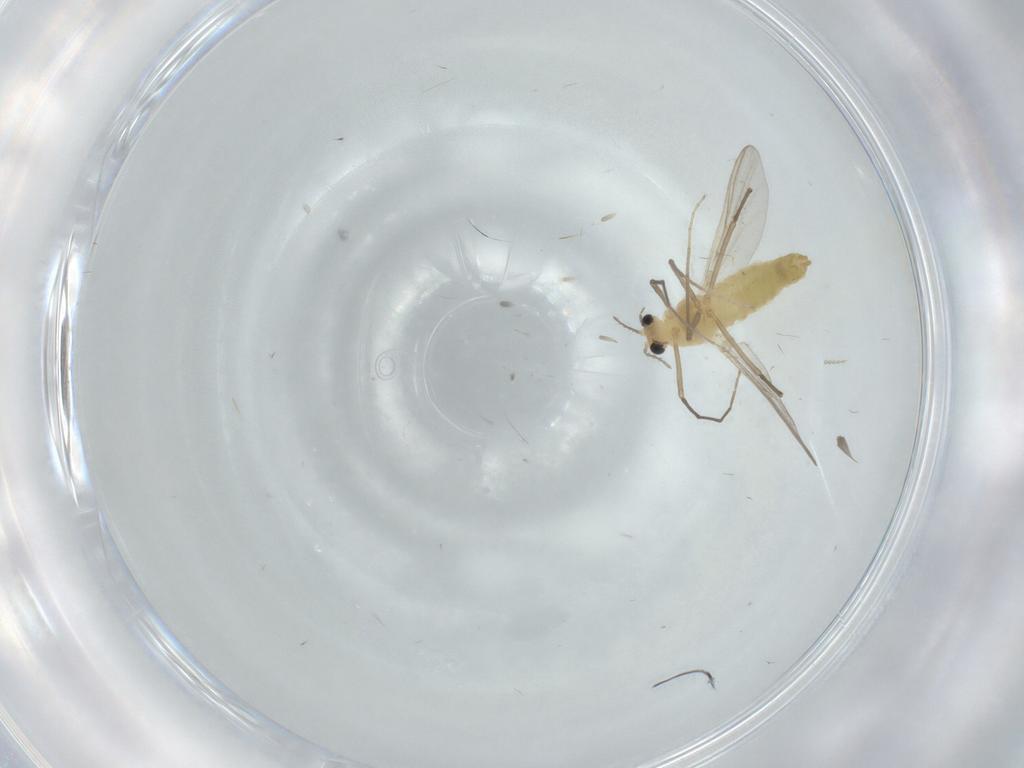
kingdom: Animalia
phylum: Arthropoda
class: Insecta
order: Diptera
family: Chironomidae
